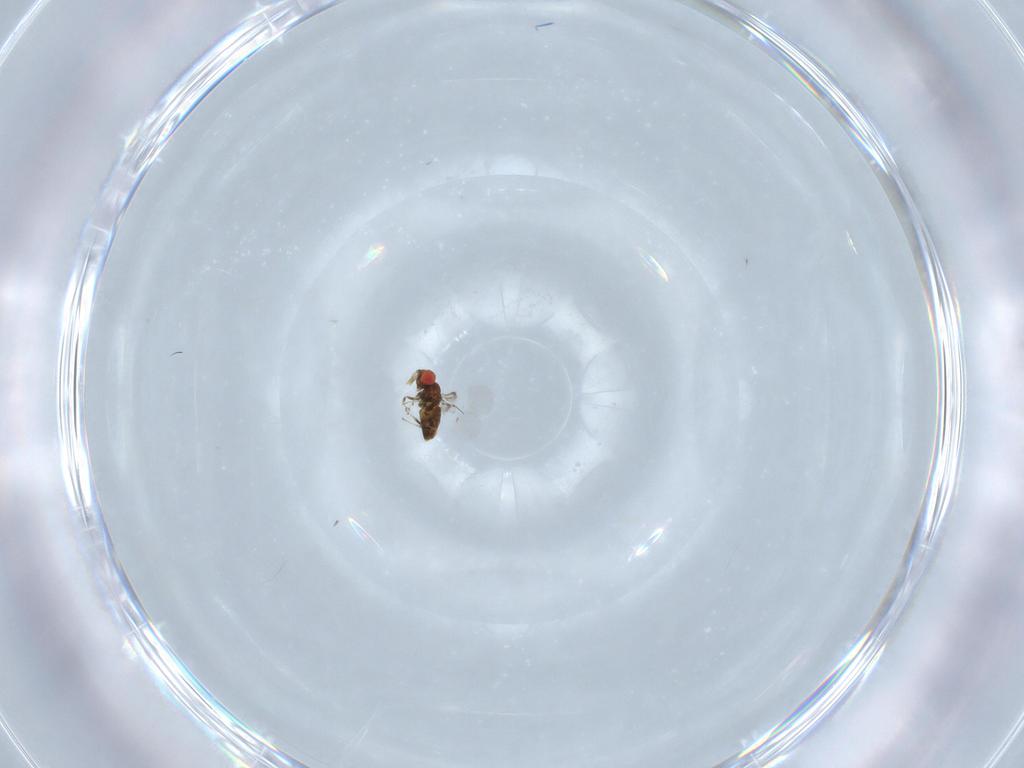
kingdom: Animalia
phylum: Arthropoda
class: Insecta
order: Hymenoptera
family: Trichogrammatidae
